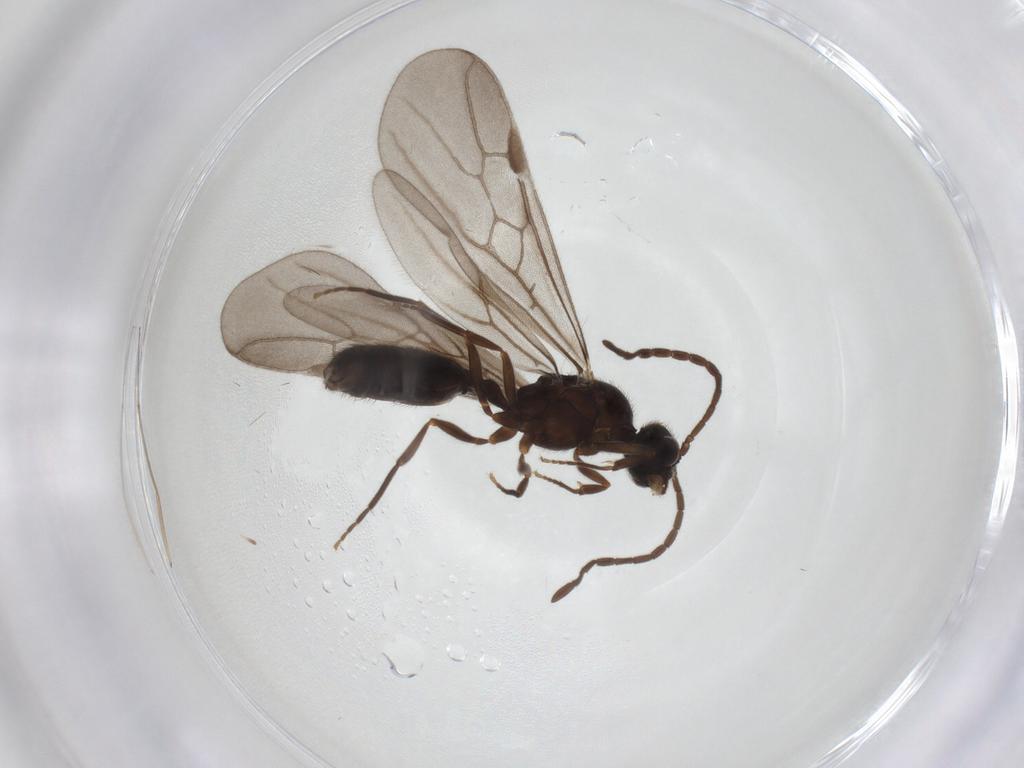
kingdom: Animalia
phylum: Arthropoda
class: Insecta
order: Hymenoptera
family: Formicidae
